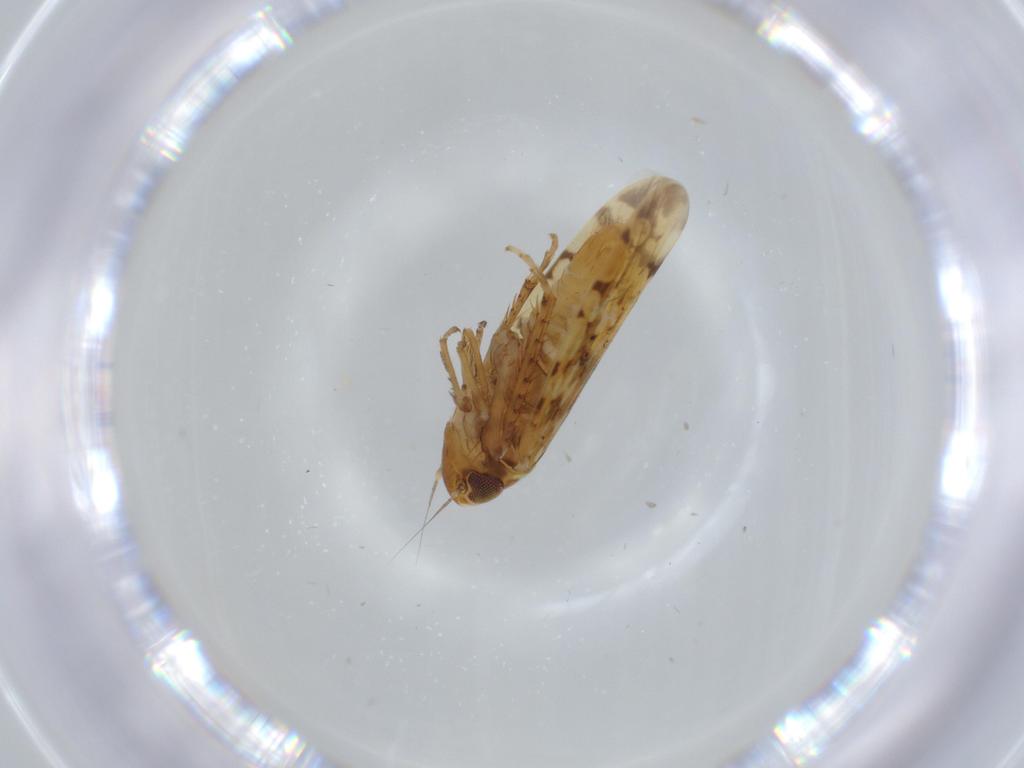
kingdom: Animalia
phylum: Arthropoda
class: Insecta
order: Hemiptera
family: Cicadellidae
